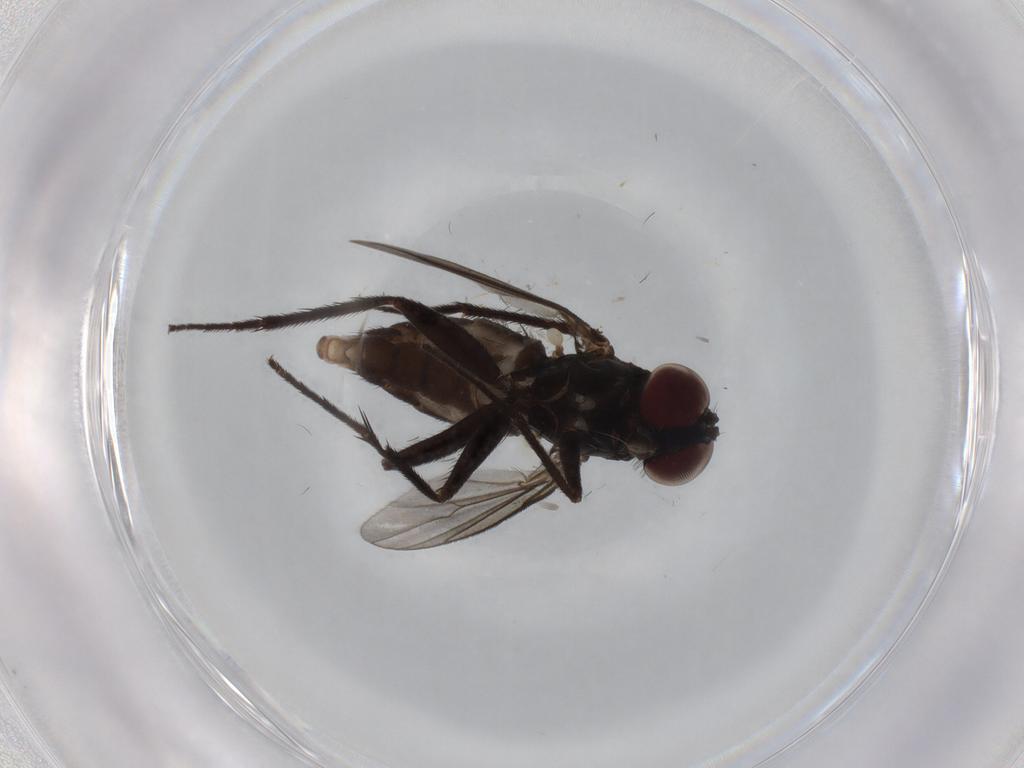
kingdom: Animalia
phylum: Arthropoda
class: Insecta
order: Diptera
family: Dolichopodidae
